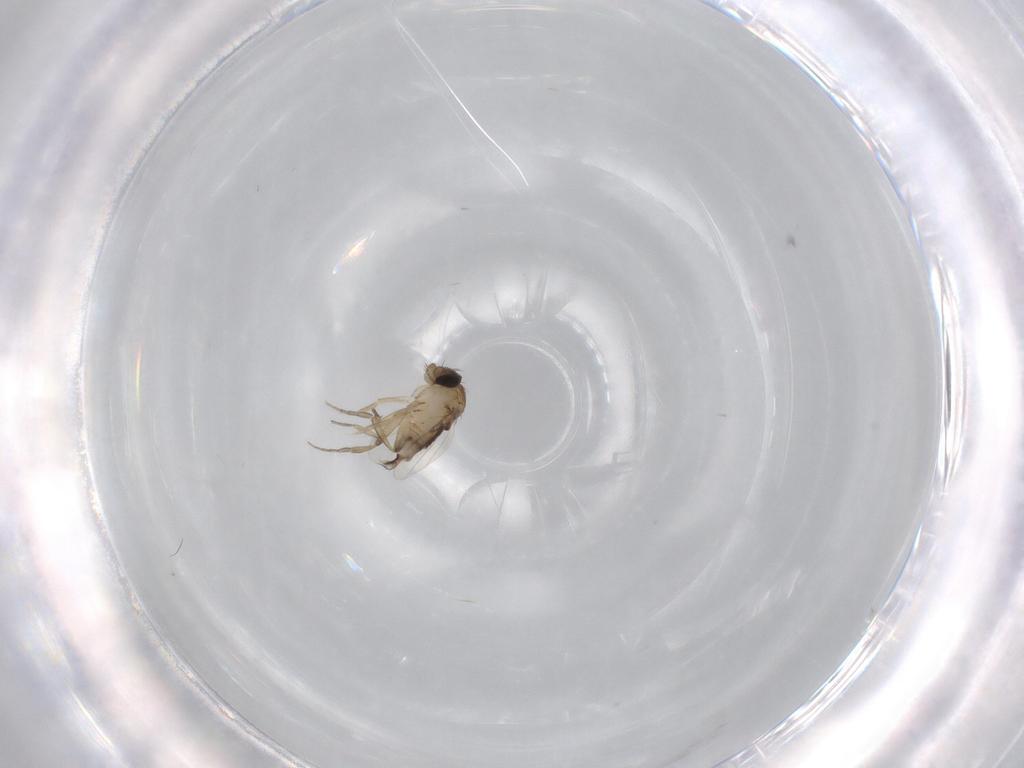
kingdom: Animalia
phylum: Arthropoda
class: Insecta
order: Diptera
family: Phoridae
